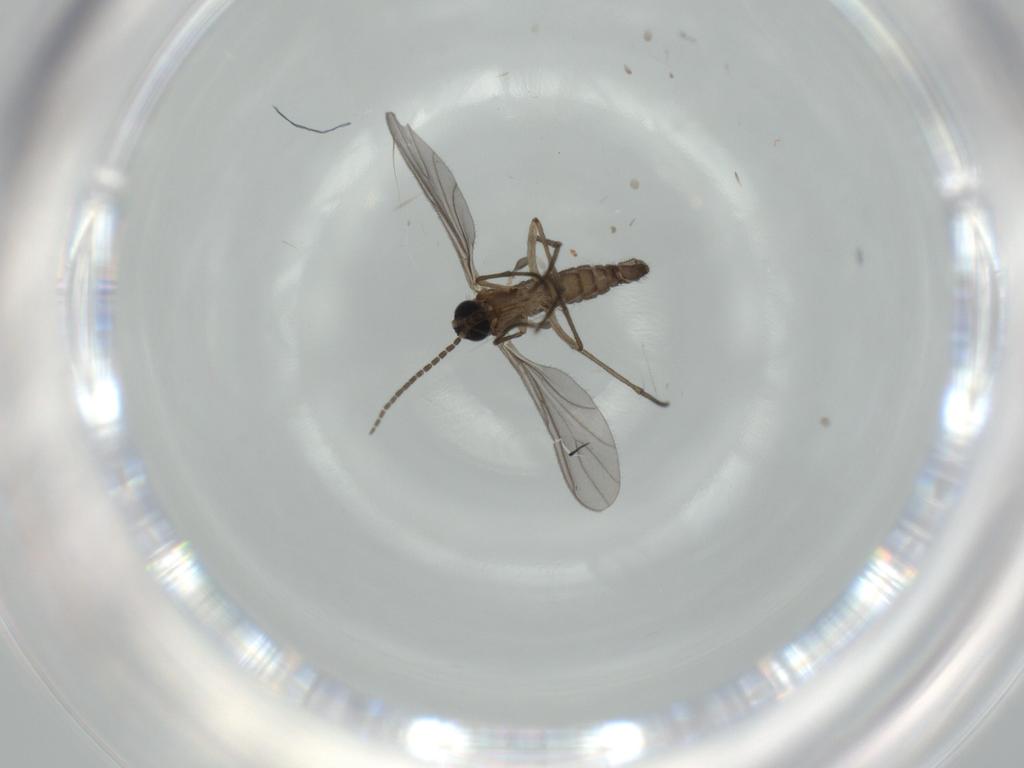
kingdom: Animalia
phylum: Arthropoda
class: Insecta
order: Diptera
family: Sciaridae
